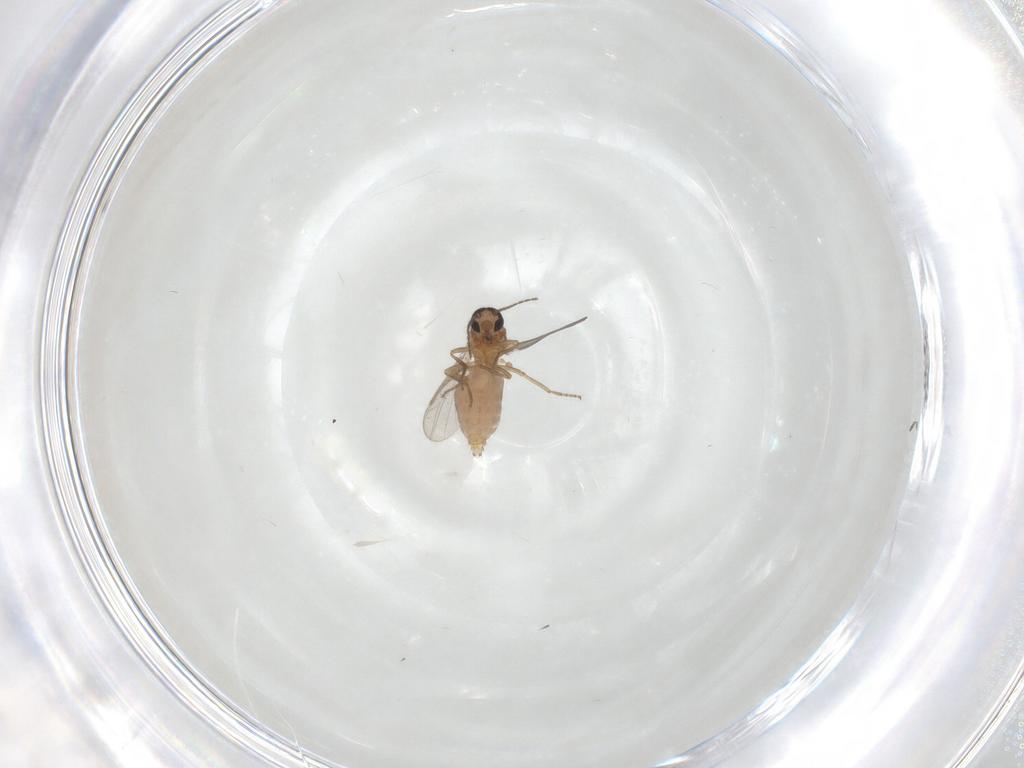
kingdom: Animalia
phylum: Arthropoda
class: Insecta
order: Diptera
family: Ceratopogonidae
